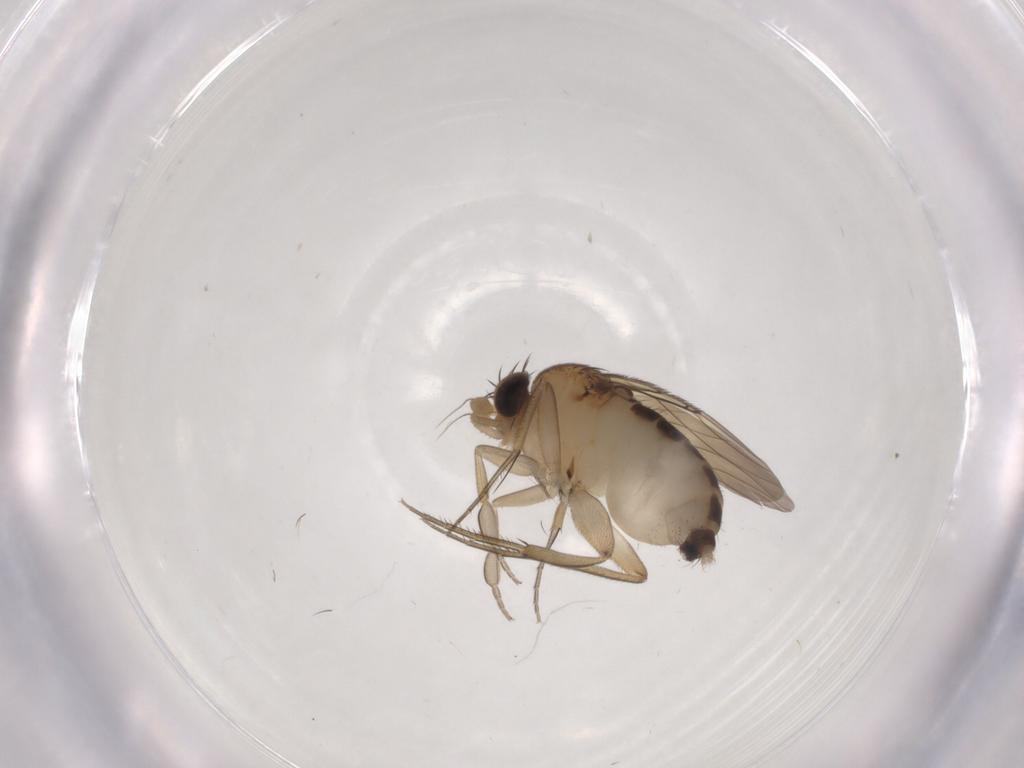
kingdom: Animalia
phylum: Arthropoda
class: Insecta
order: Diptera
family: Phoridae
